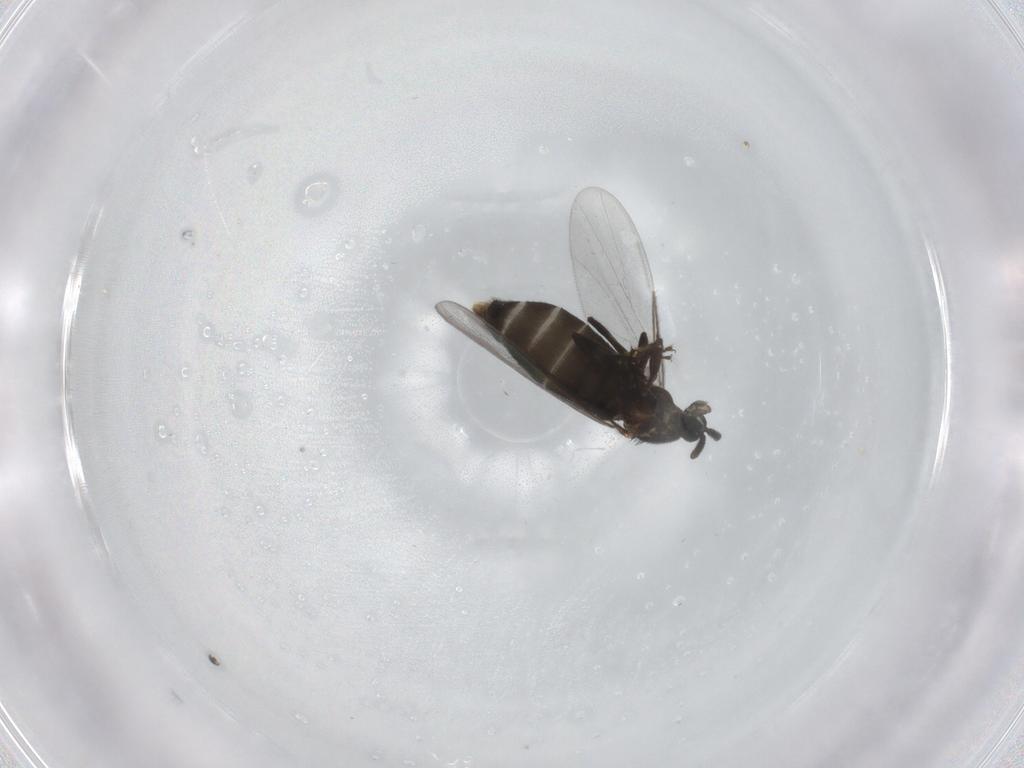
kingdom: Animalia
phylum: Arthropoda
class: Insecta
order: Diptera
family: Scatopsidae
